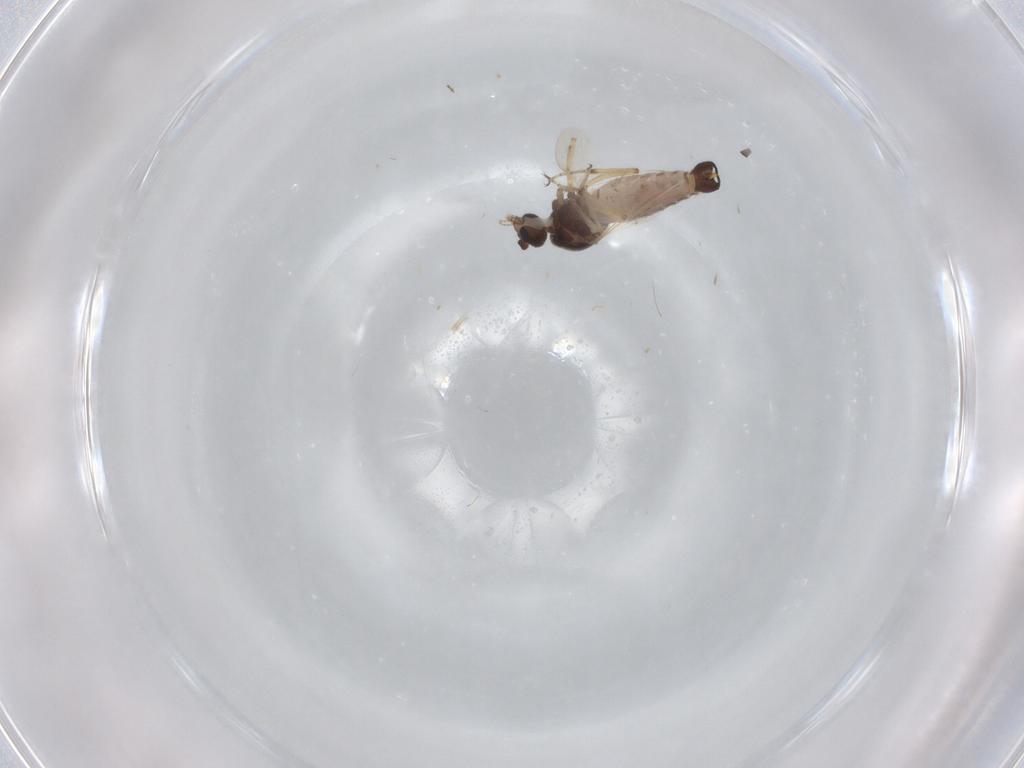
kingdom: Animalia
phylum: Arthropoda
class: Insecta
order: Diptera
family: Ceratopogonidae
